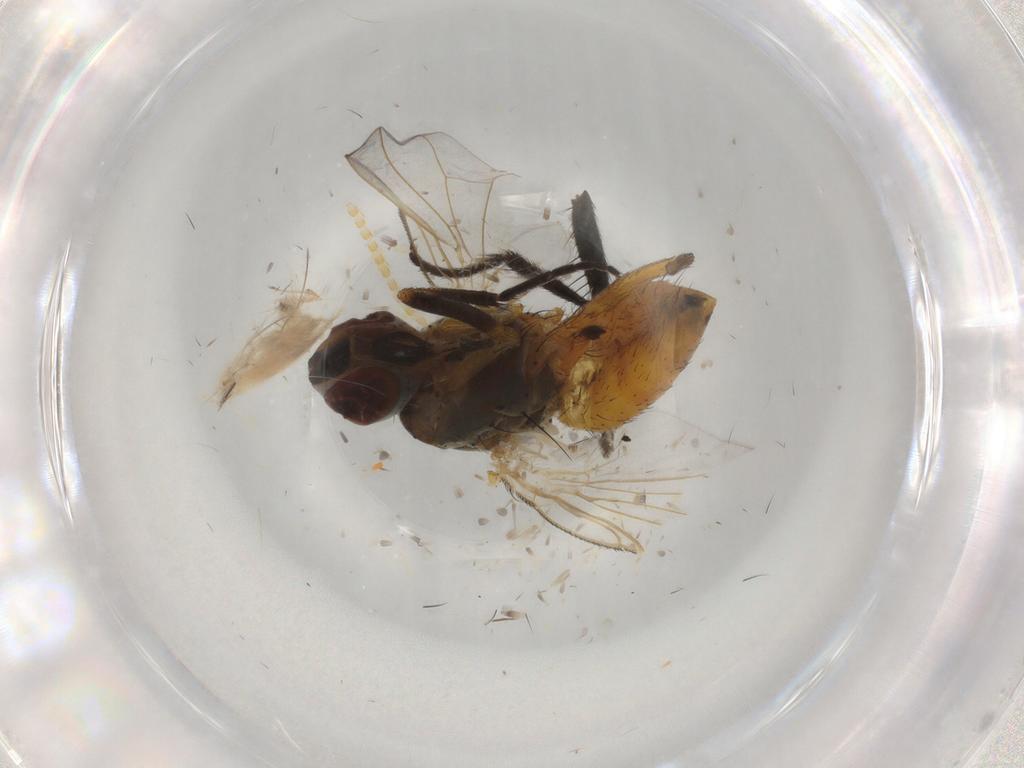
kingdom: Animalia
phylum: Arthropoda
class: Insecta
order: Diptera
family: Muscidae
